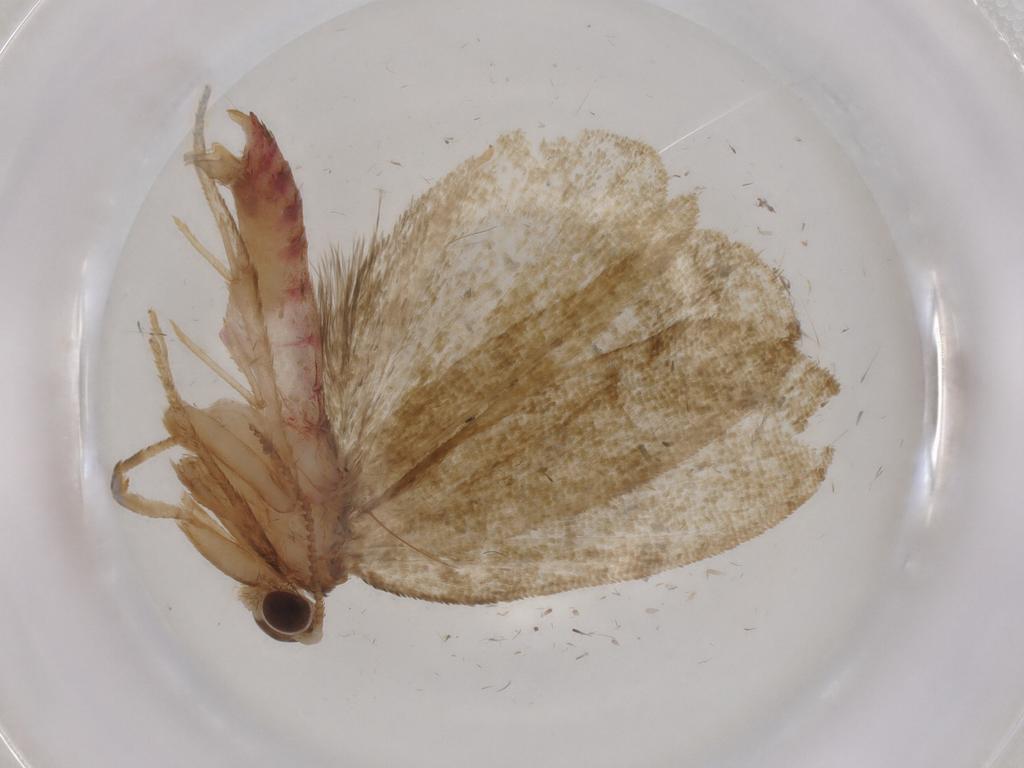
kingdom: Animalia
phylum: Arthropoda
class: Insecta
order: Lepidoptera
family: Geometridae
